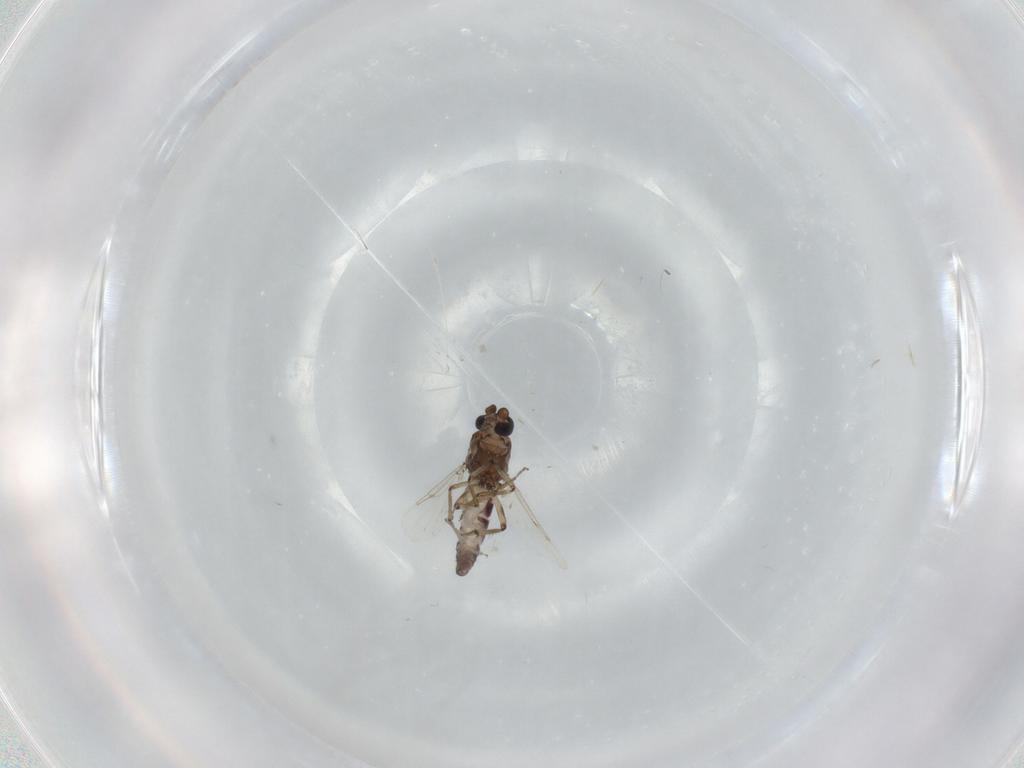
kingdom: Animalia
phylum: Arthropoda
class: Insecta
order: Diptera
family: Ceratopogonidae
